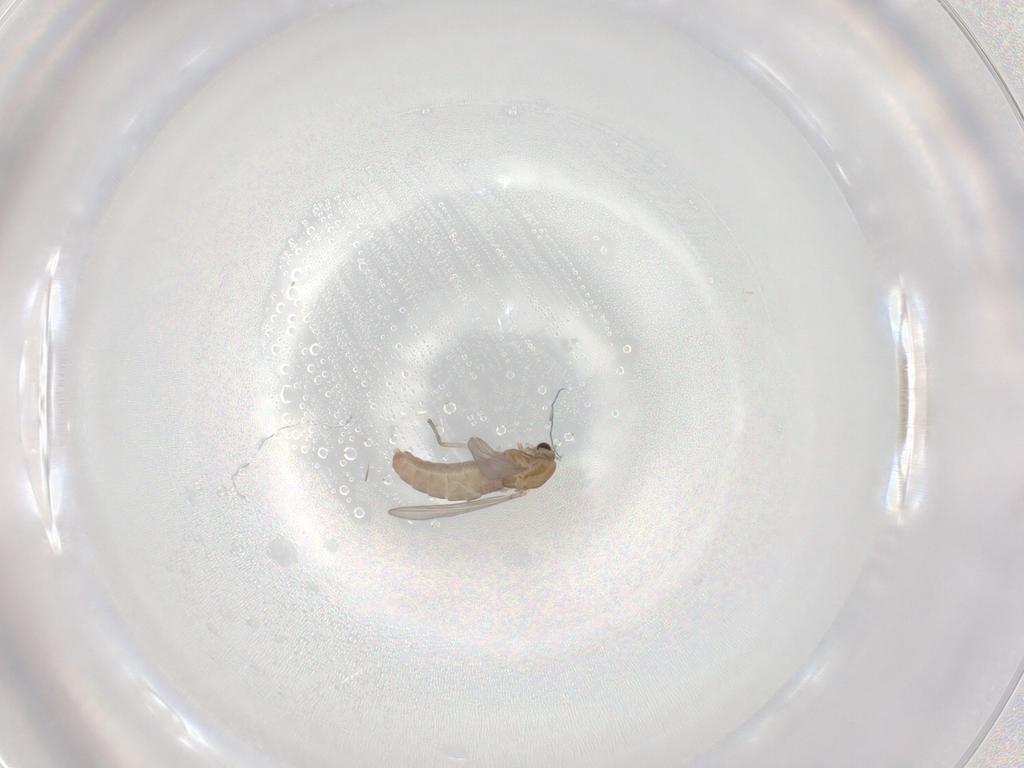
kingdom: Animalia
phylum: Arthropoda
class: Insecta
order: Diptera
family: Chironomidae
